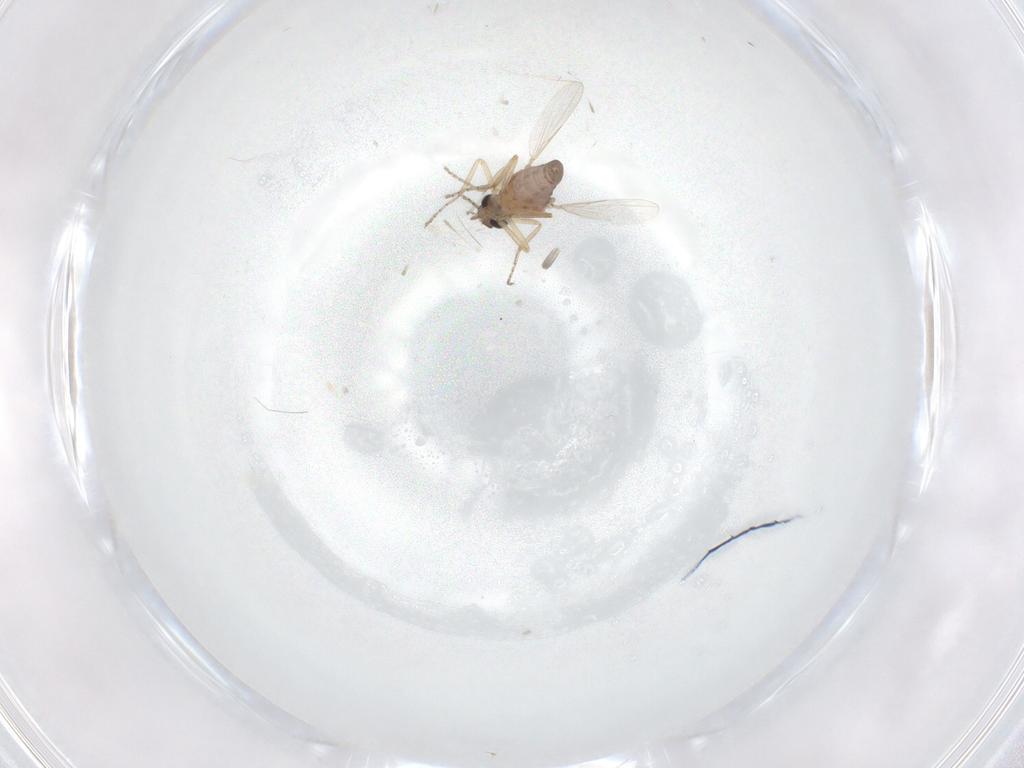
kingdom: Animalia
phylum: Arthropoda
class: Insecta
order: Diptera
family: Ceratopogonidae
